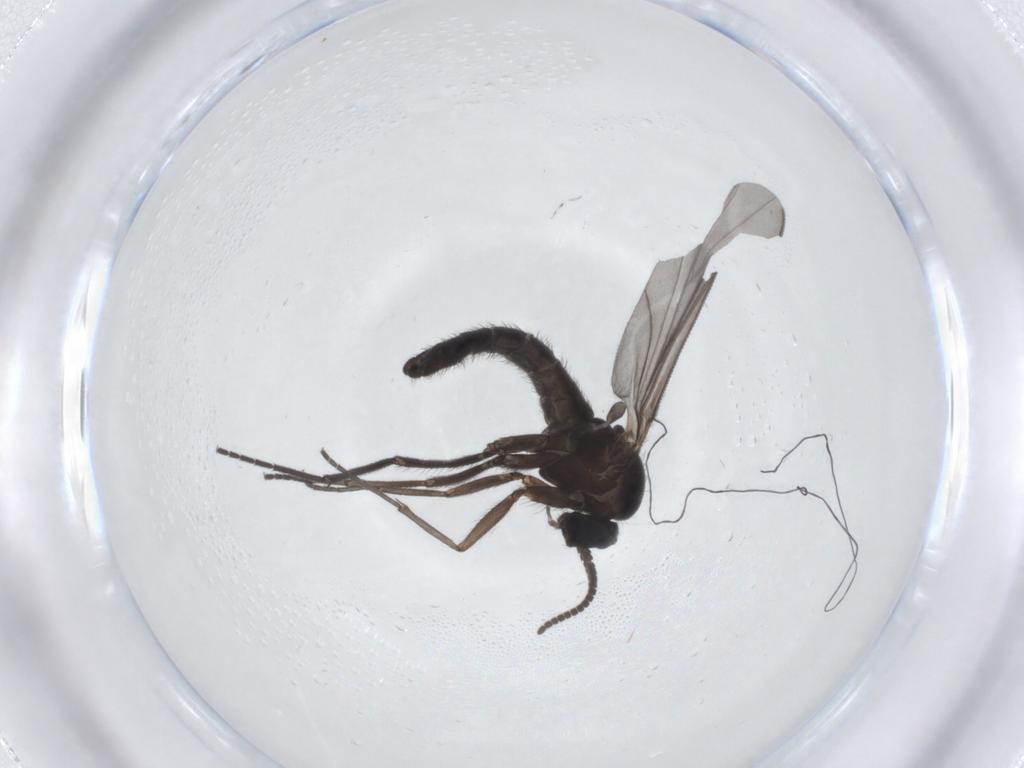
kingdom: Animalia
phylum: Arthropoda
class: Insecta
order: Diptera
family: Sciaridae
